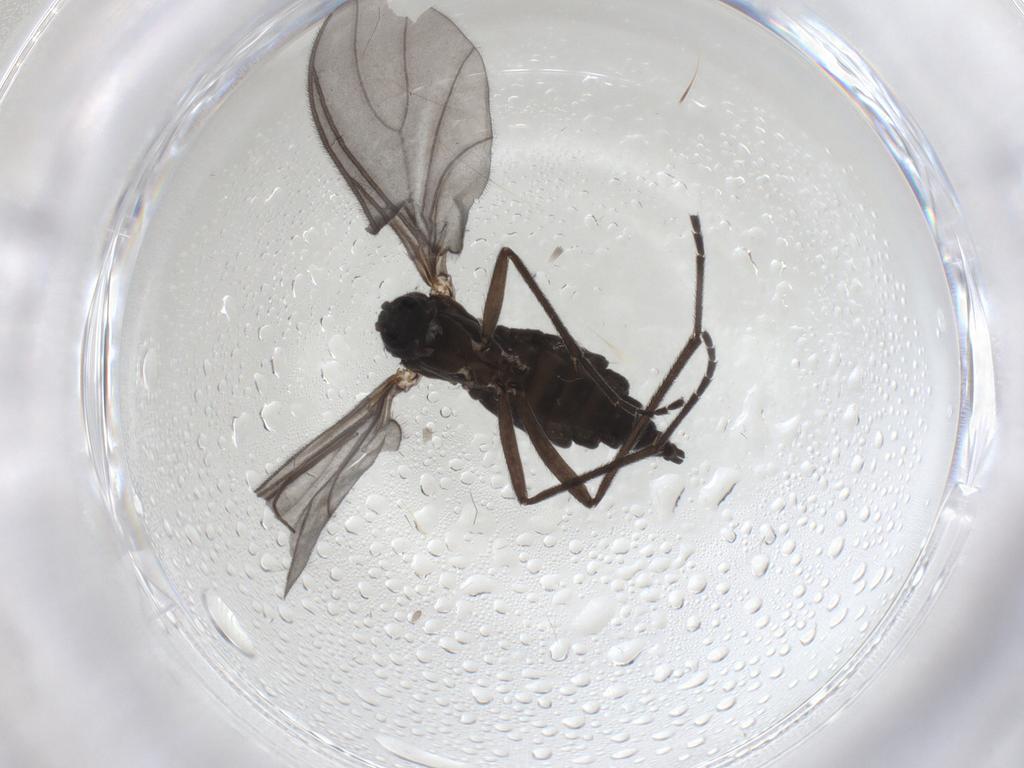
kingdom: Animalia
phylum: Arthropoda
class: Insecta
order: Diptera
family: Sciaridae
